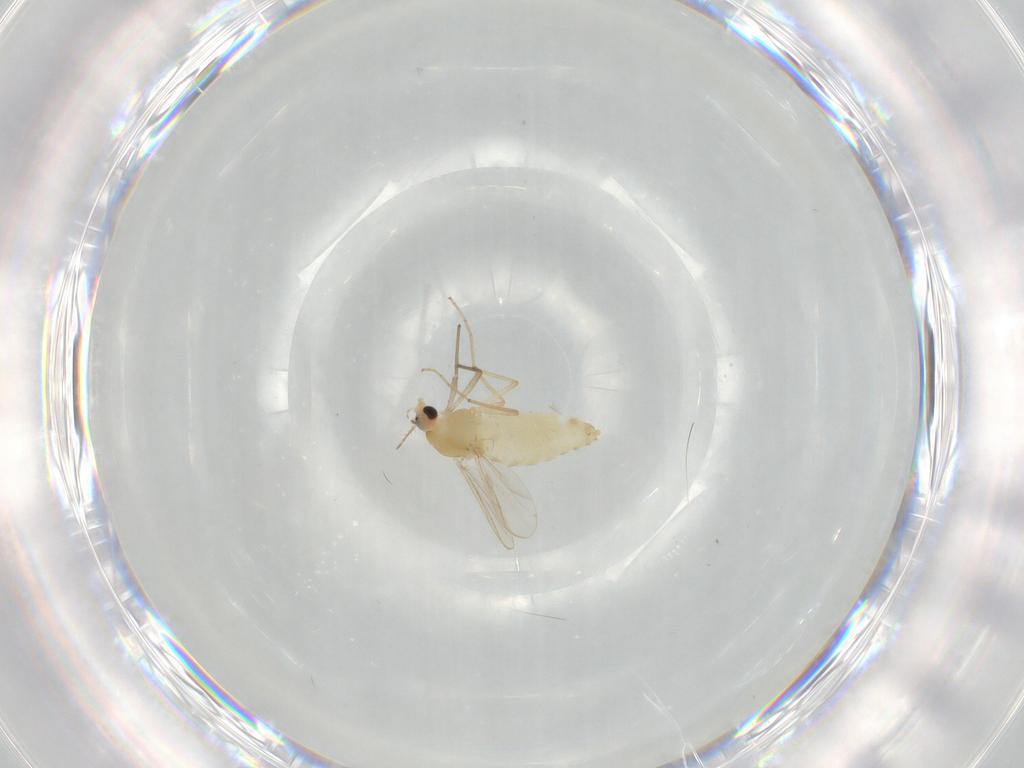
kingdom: Animalia
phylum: Arthropoda
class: Insecta
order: Diptera
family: Chironomidae
